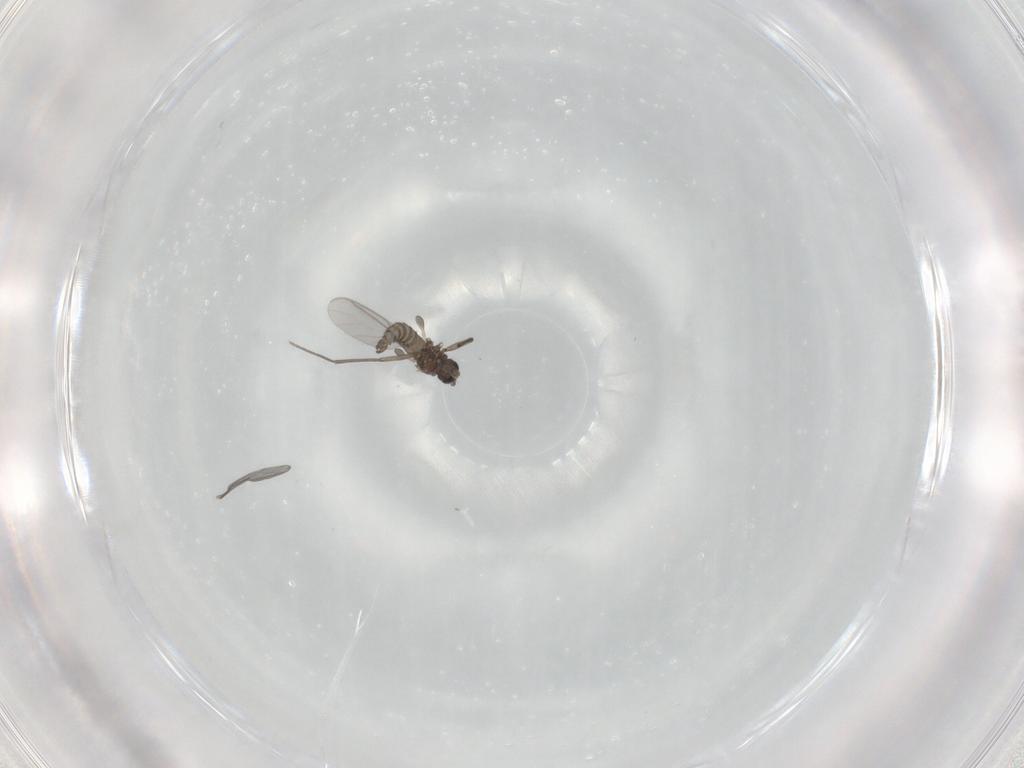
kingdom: Animalia
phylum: Arthropoda
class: Insecta
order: Diptera
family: Sciaridae
